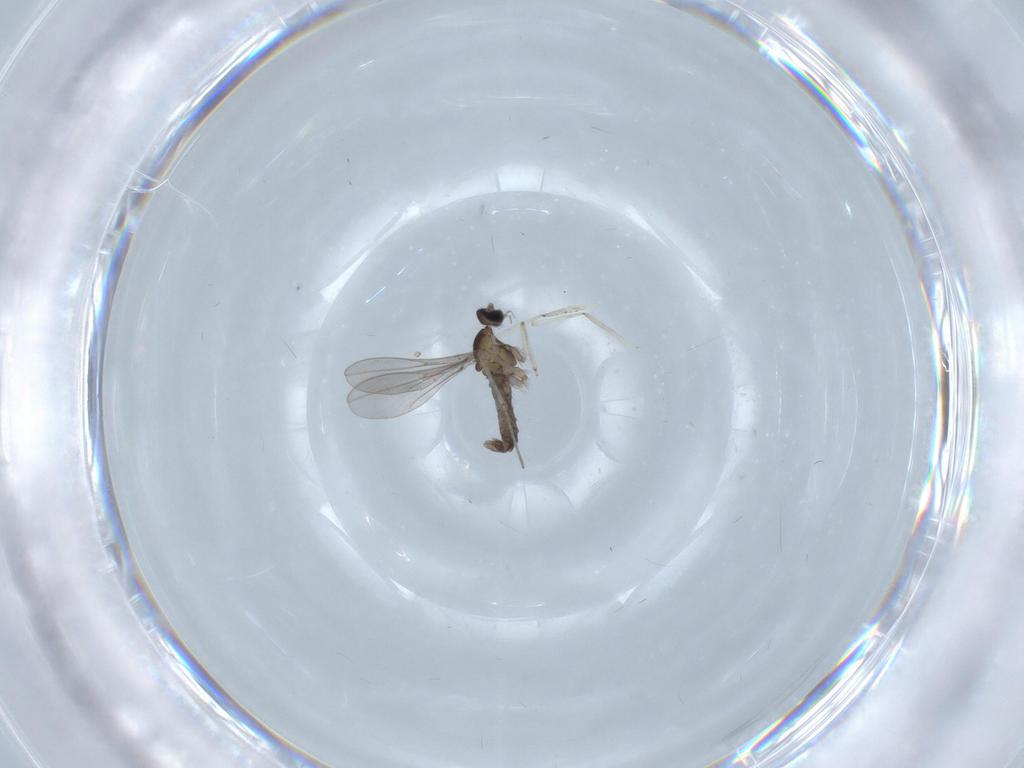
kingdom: Animalia
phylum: Arthropoda
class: Insecta
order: Diptera
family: Cecidomyiidae
